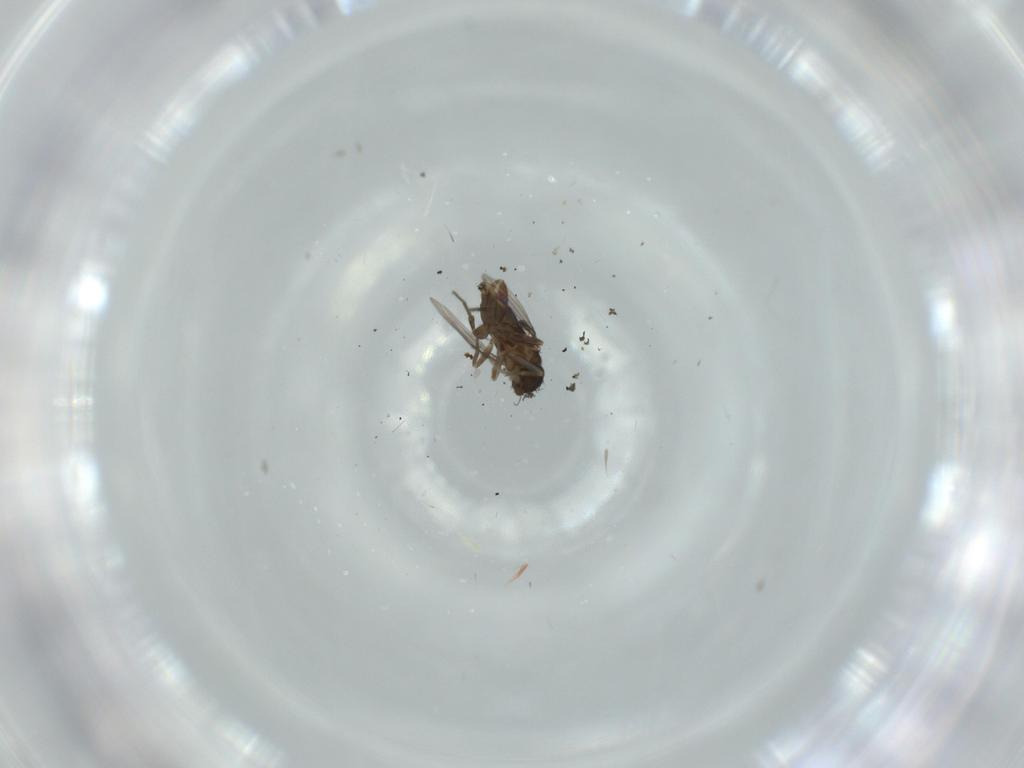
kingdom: Animalia
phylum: Arthropoda
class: Insecta
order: Diptera
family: Phoridae
